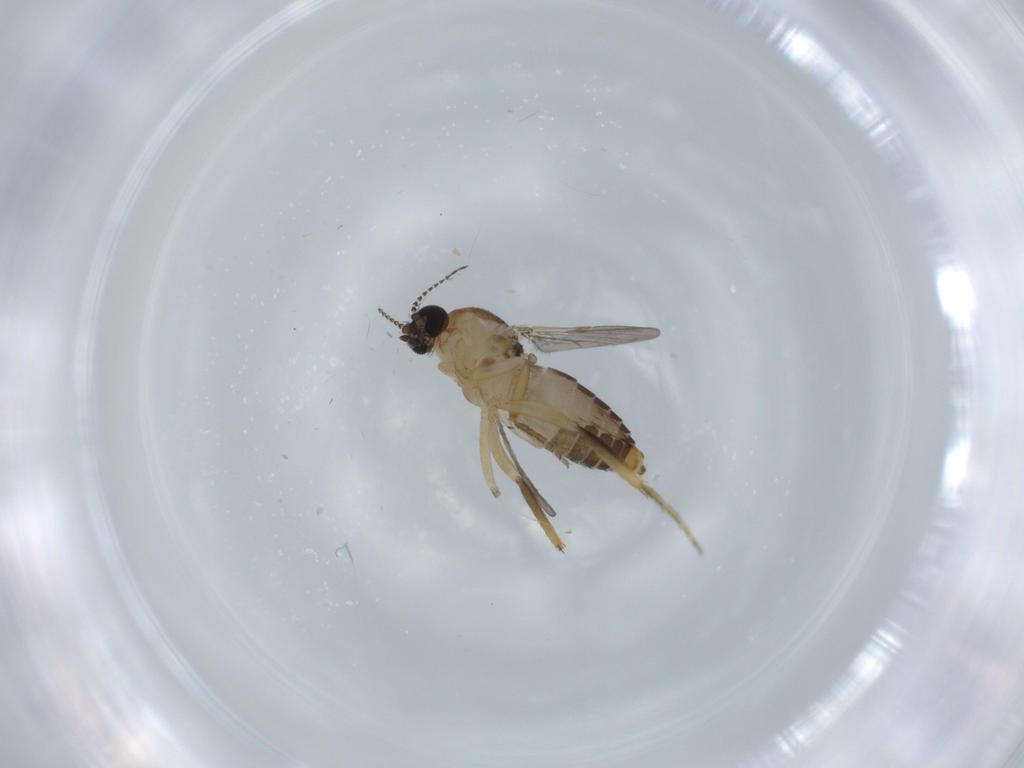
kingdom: Animalia
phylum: Arthropoda
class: Insecta
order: Diptera
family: Ceratopogonidae
